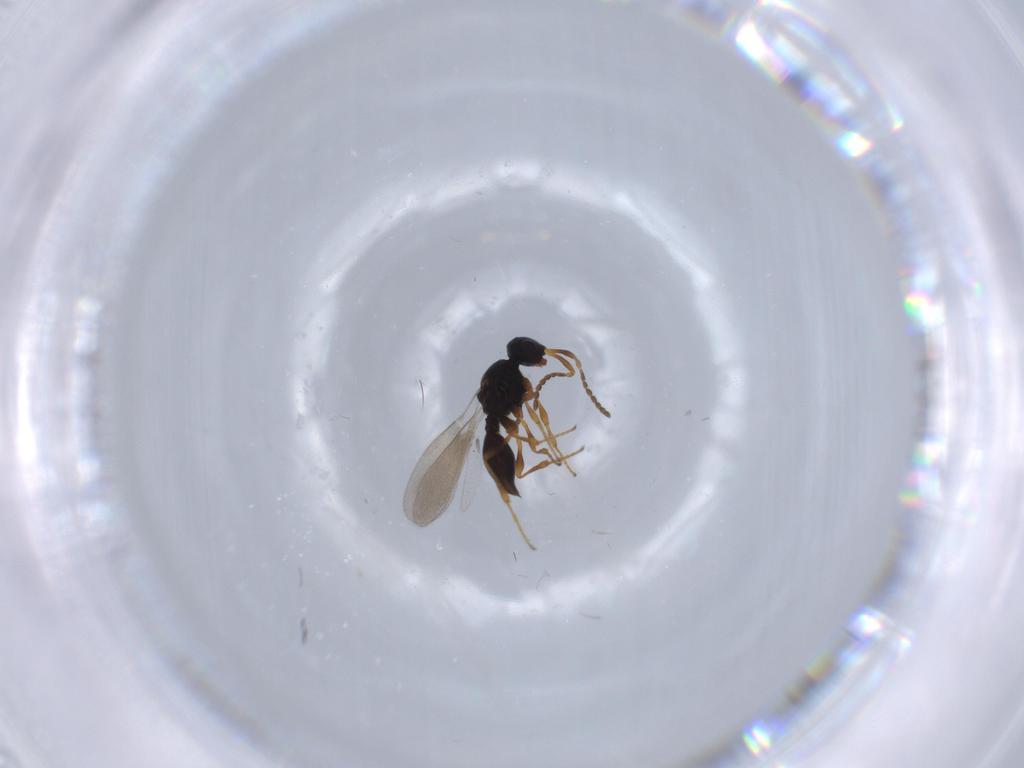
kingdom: Animalia
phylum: Arthropoda
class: Insecta
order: Diptera
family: Mythicomyiidae
